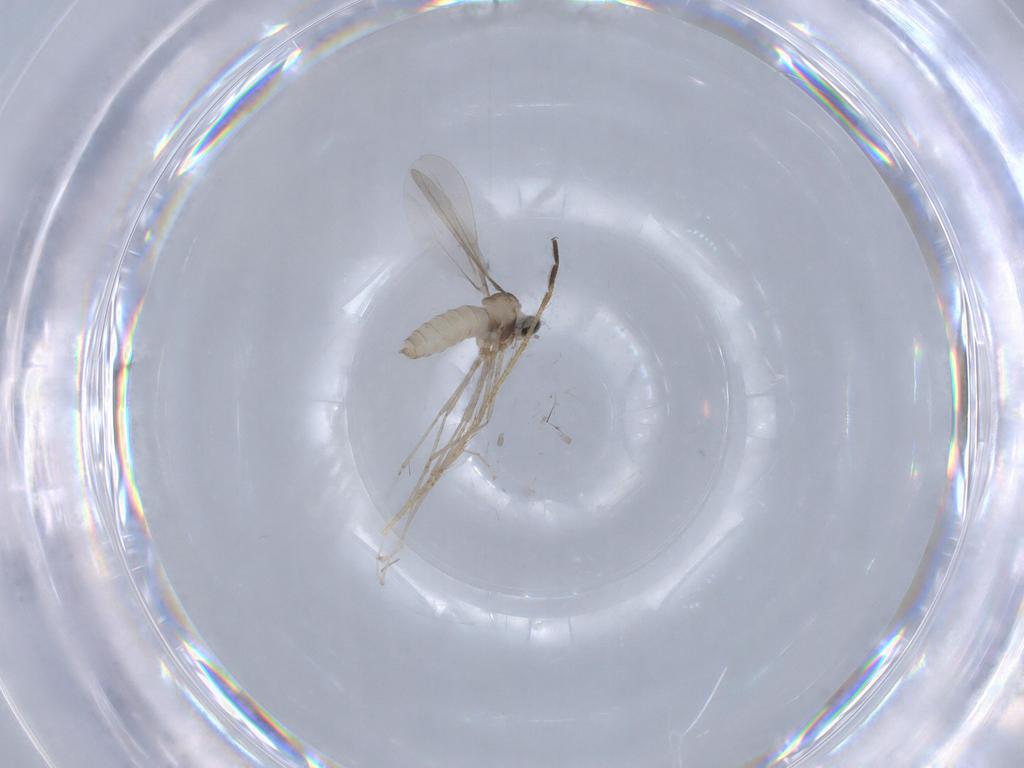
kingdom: Animalia
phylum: Arthropoda
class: Insecta
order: Diptera
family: Cecidomyiidae
